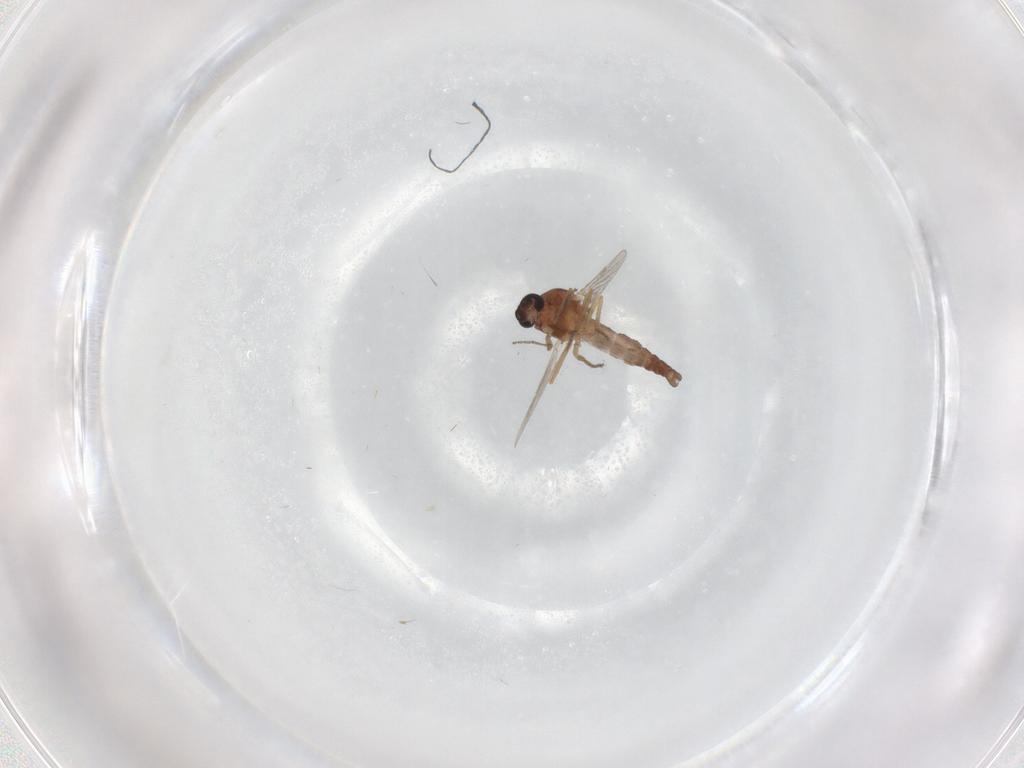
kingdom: Animalia
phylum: Arthropoda
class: Insecta
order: Diptera
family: Ceratopogonidae
